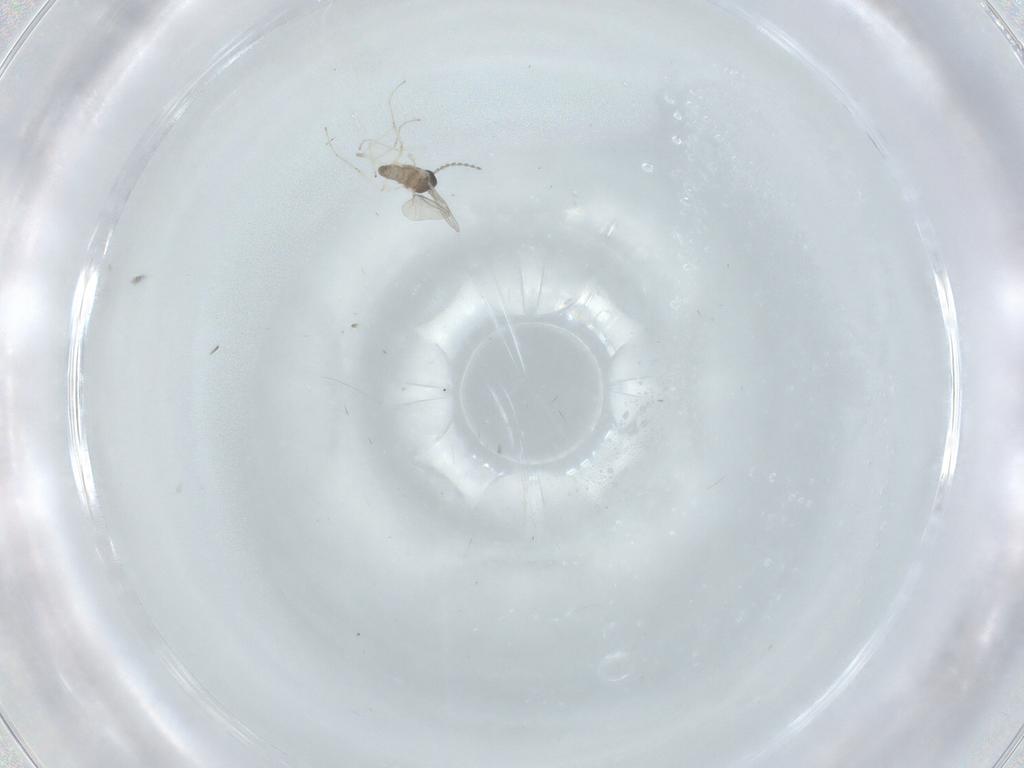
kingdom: Animalia
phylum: Arthropoda
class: Insecta
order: Diptera
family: Cecidomyiidae
